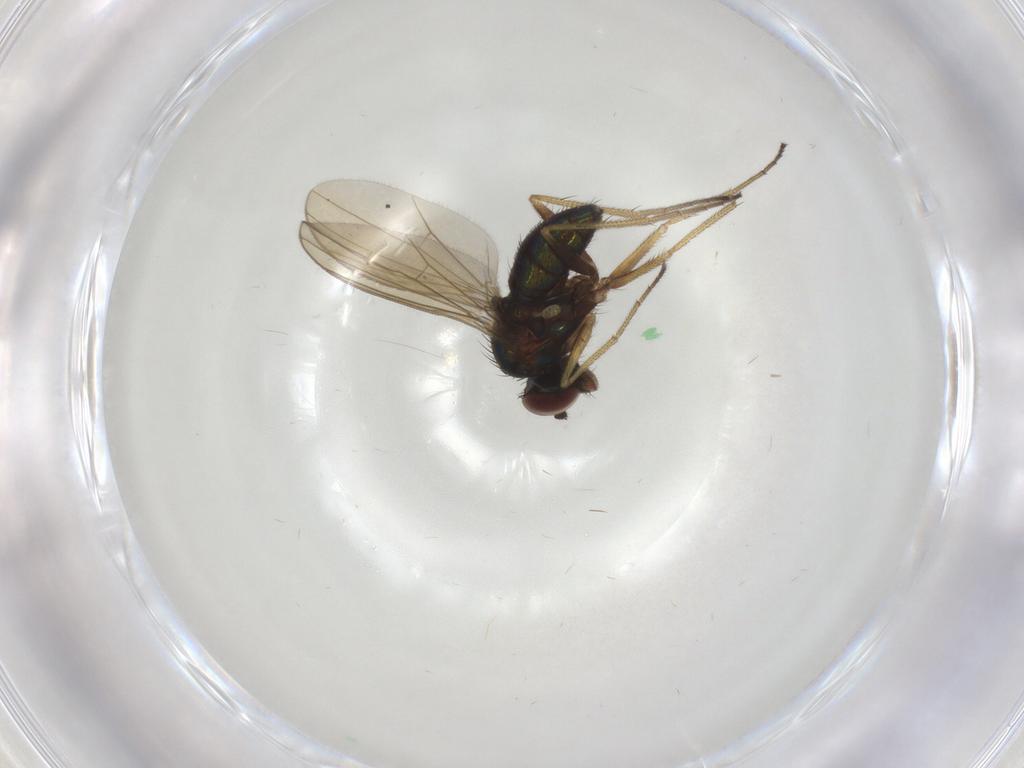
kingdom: Animalia
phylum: Arthropoda
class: Insecta
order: Diptera
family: Dolichopodidae
